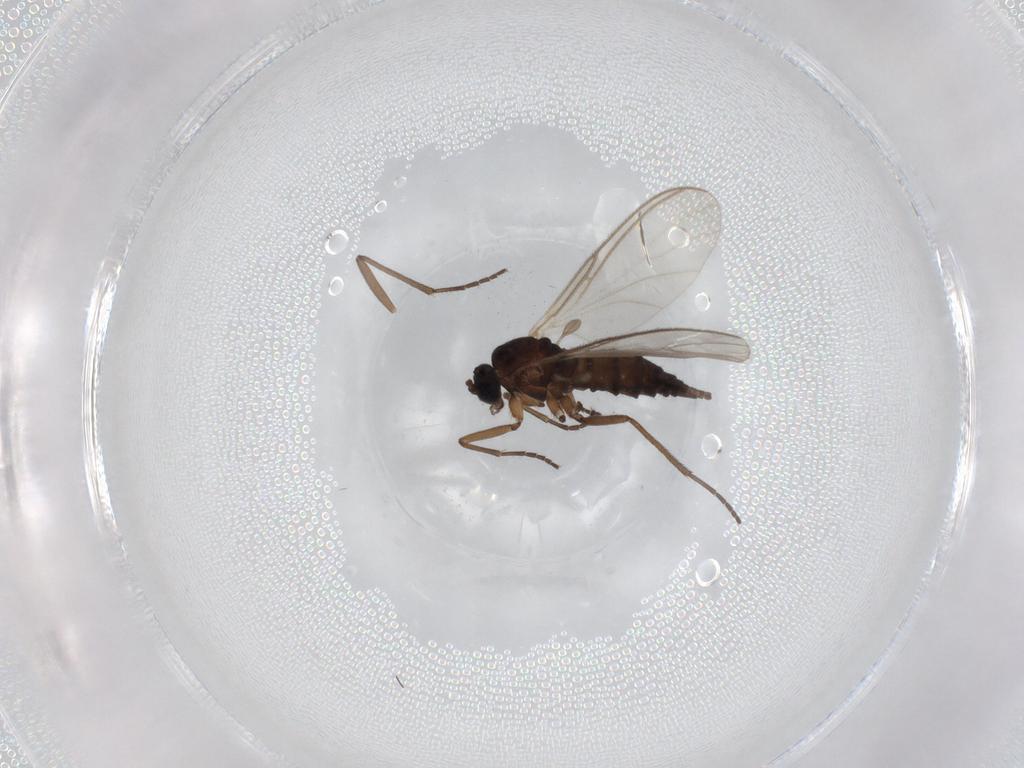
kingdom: Animalia
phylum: Arthropoda
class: Insecta
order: Diptera
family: Sciaridae
